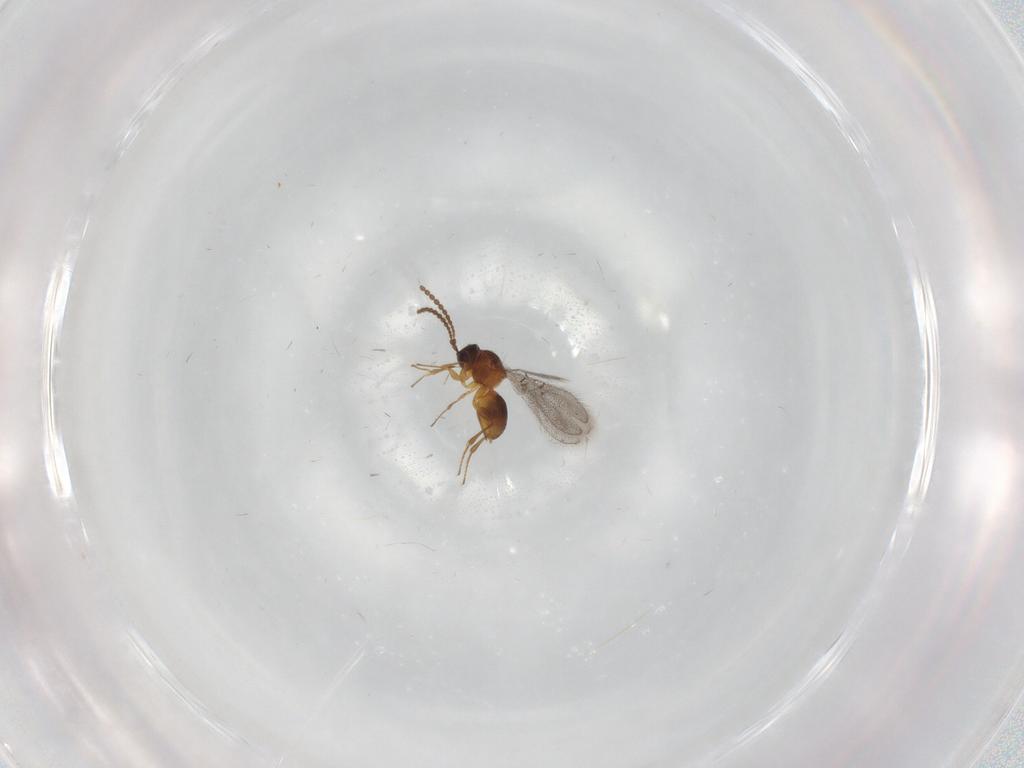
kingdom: Animalia
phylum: Arthropoda
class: Insecta
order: Hymenoptera
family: Figitidae
